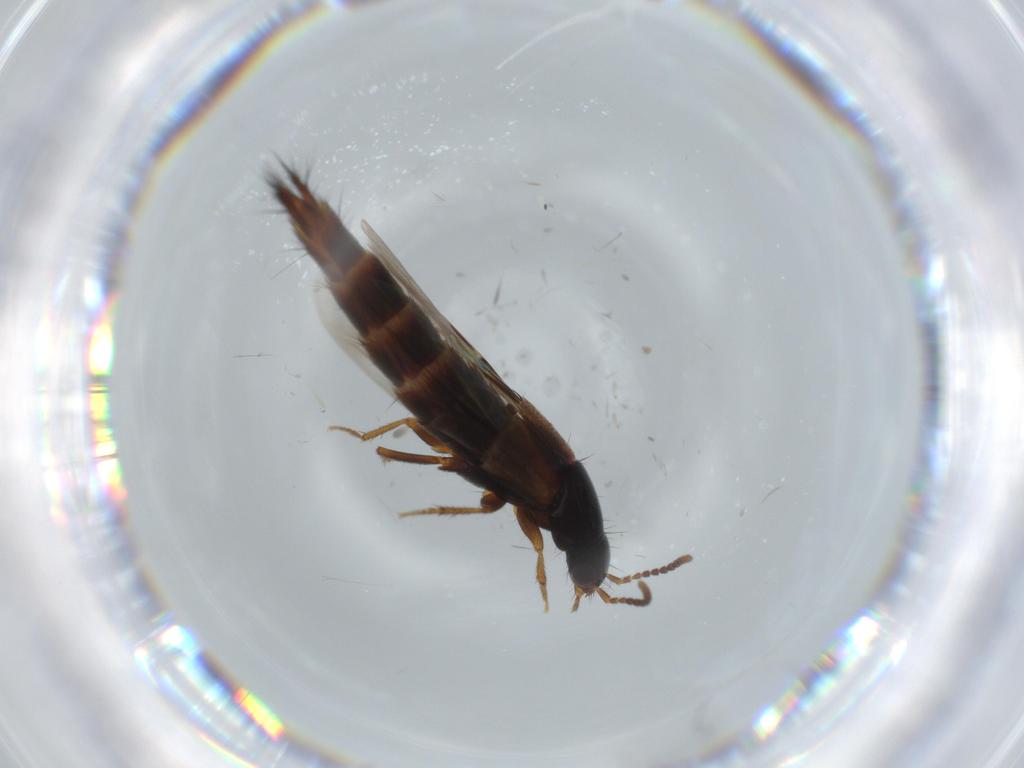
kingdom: Animalia
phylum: Arthropoda
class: Insecta
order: Coleoptera
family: Staphylinidae
